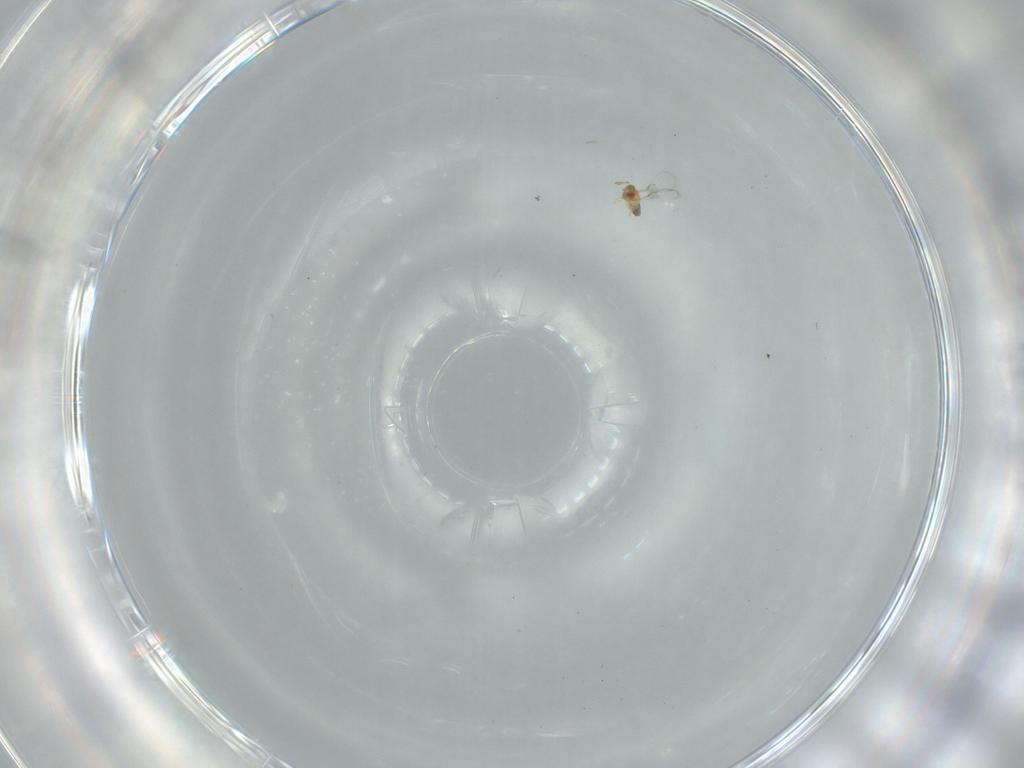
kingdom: Animalia
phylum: Arthropoda
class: Insecta
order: Hymenoptera
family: Trichogrammatidae
